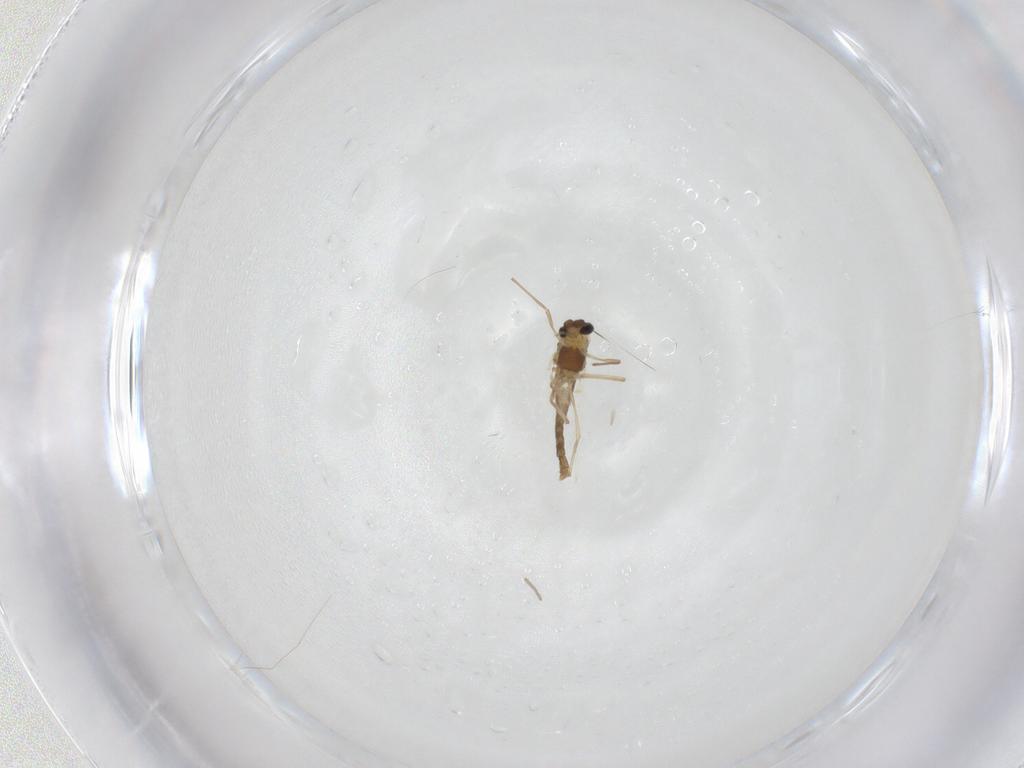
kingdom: Animalia
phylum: Arthropoda
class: Insecta
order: Diptera
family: Chironomidae
